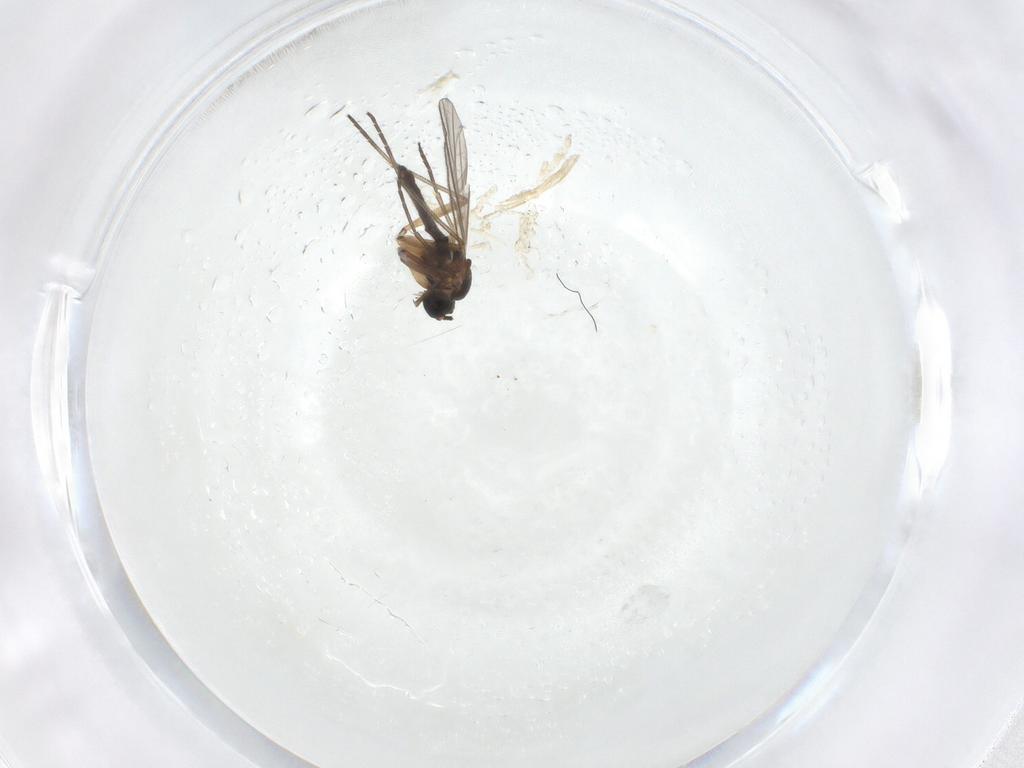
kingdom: Animalia
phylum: Arthropoda
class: Insecta
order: Diptera
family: Sciaridae
